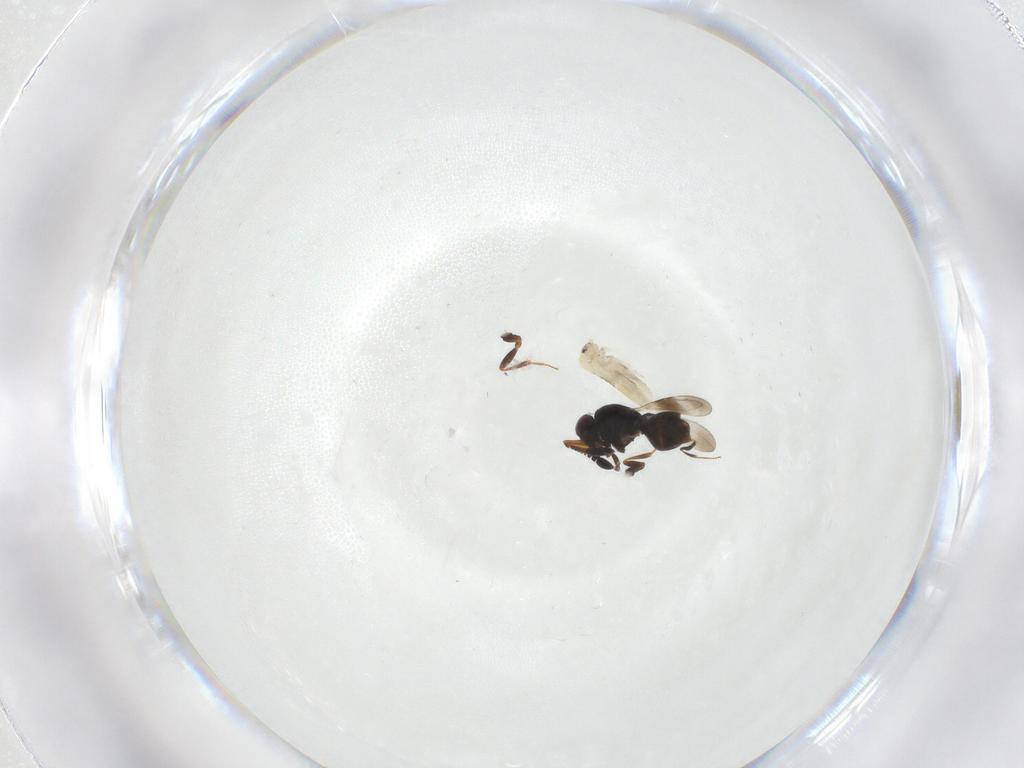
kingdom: Animalia
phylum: Arthropoda
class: Collembola
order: Entomobryomorpha
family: Entomobryidae
